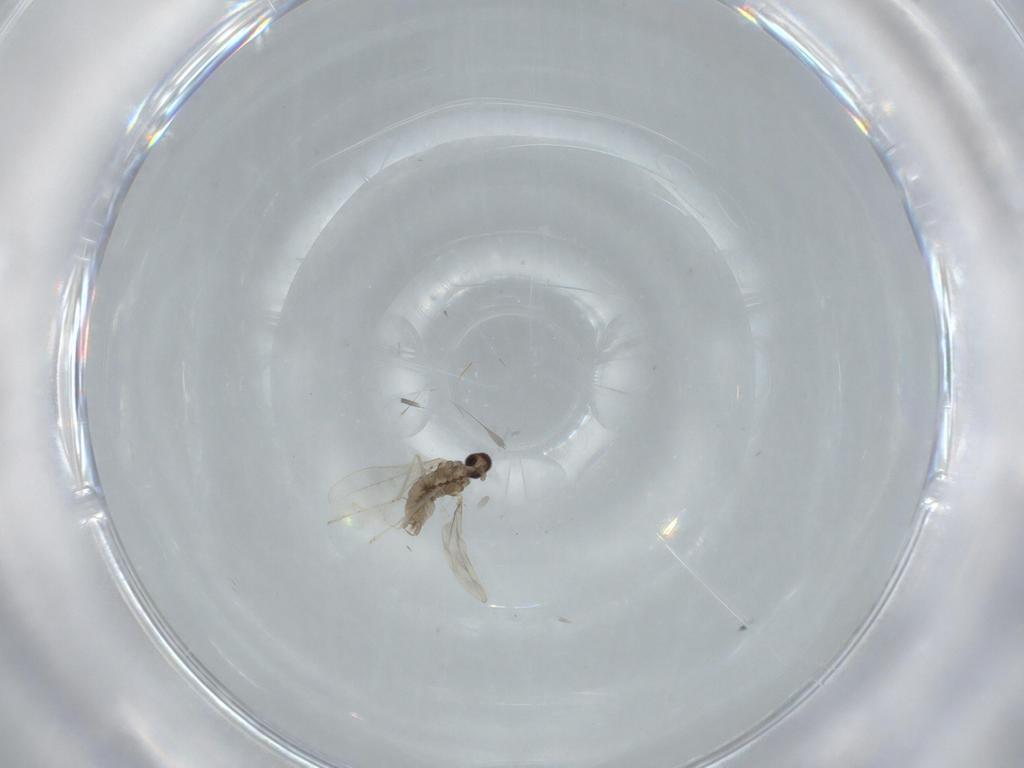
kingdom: Animalia
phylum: Arthropoda
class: Insecta
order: Diptera
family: Cecidomyiidae
